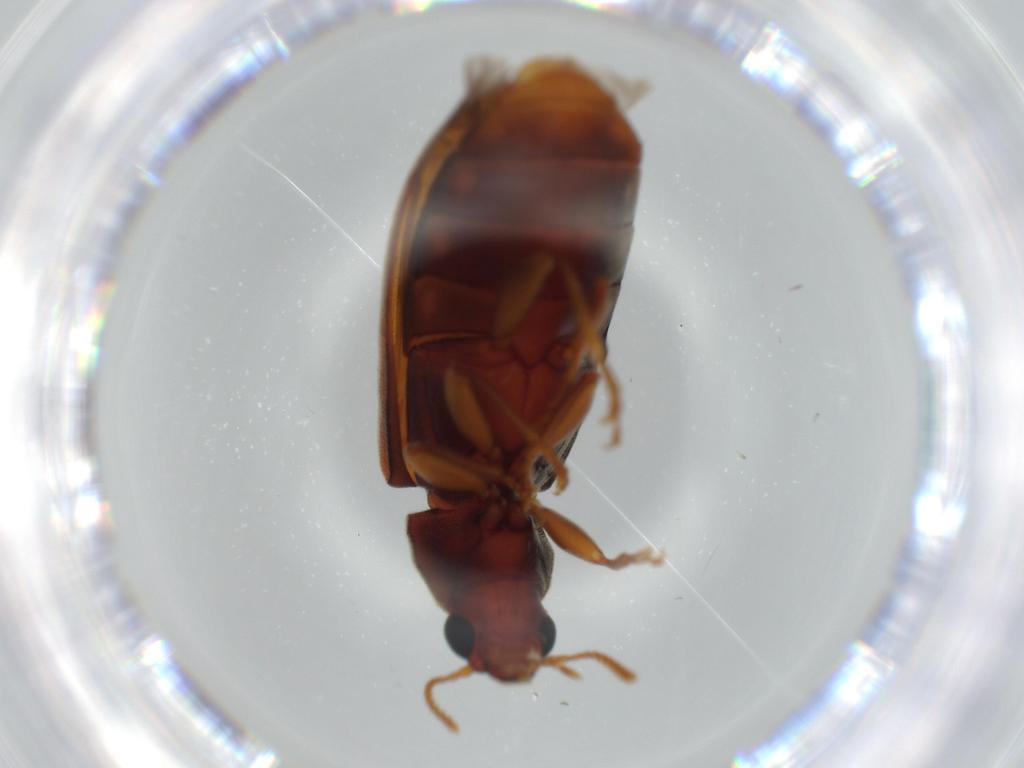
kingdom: Animalia
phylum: Arthropoda
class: Insecta
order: Coleoptera
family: Mycteridae
